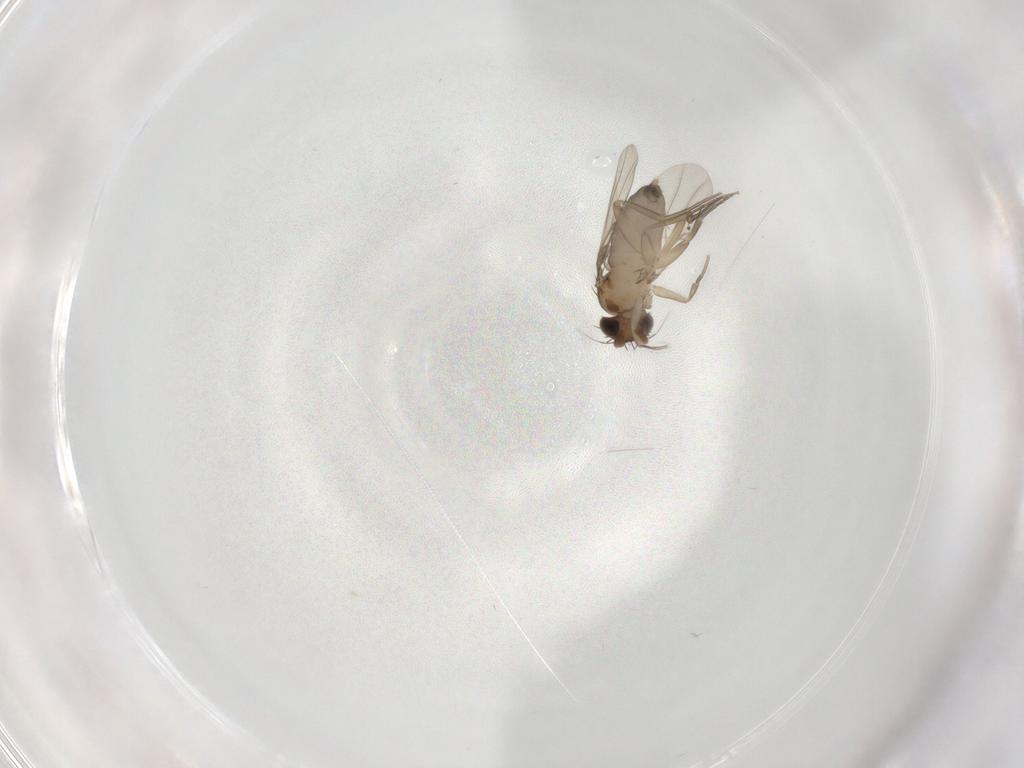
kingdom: Animalia
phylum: Arthropoda
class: Insecta
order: Diptera
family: Phoridae
